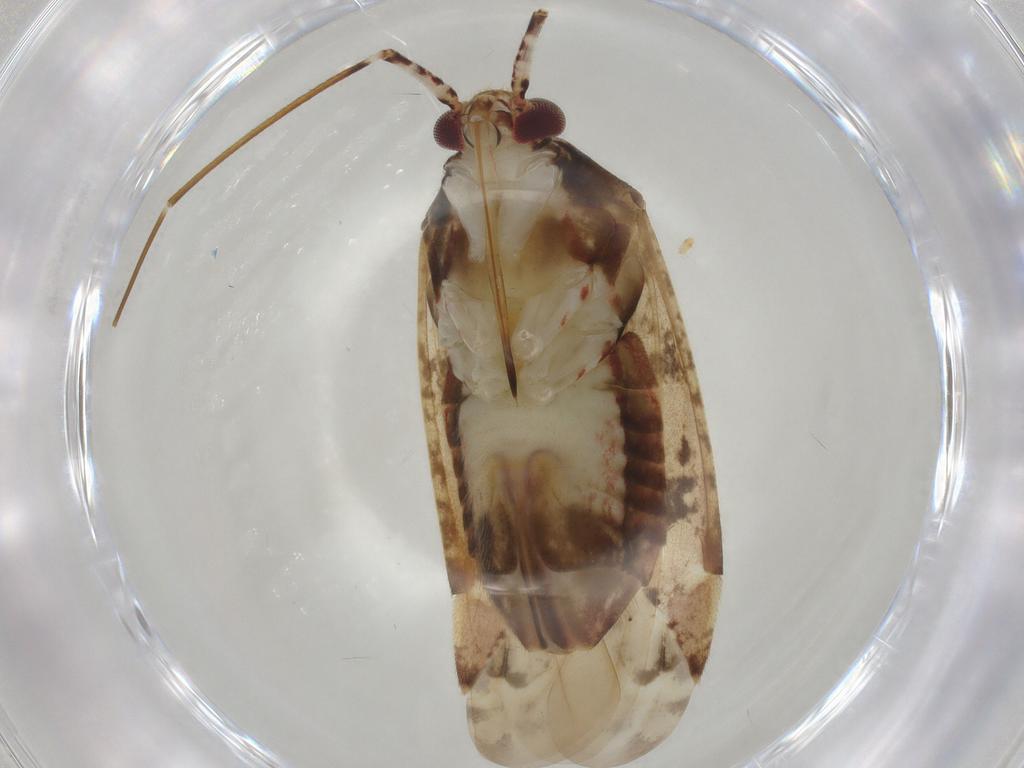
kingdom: Animalia
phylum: Arthropoda
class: Insecta
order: Hemiptera
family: Miridae
